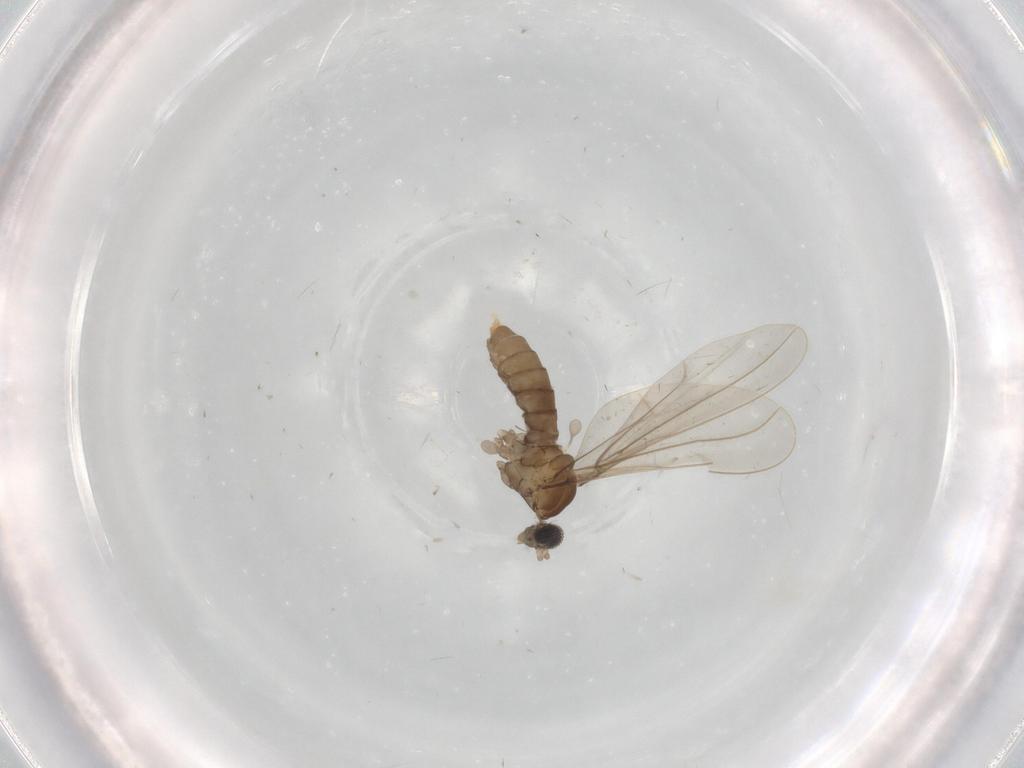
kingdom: Animalia
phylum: Arthropoda
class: Insecta
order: Diptera
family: Cecidomyiidae
